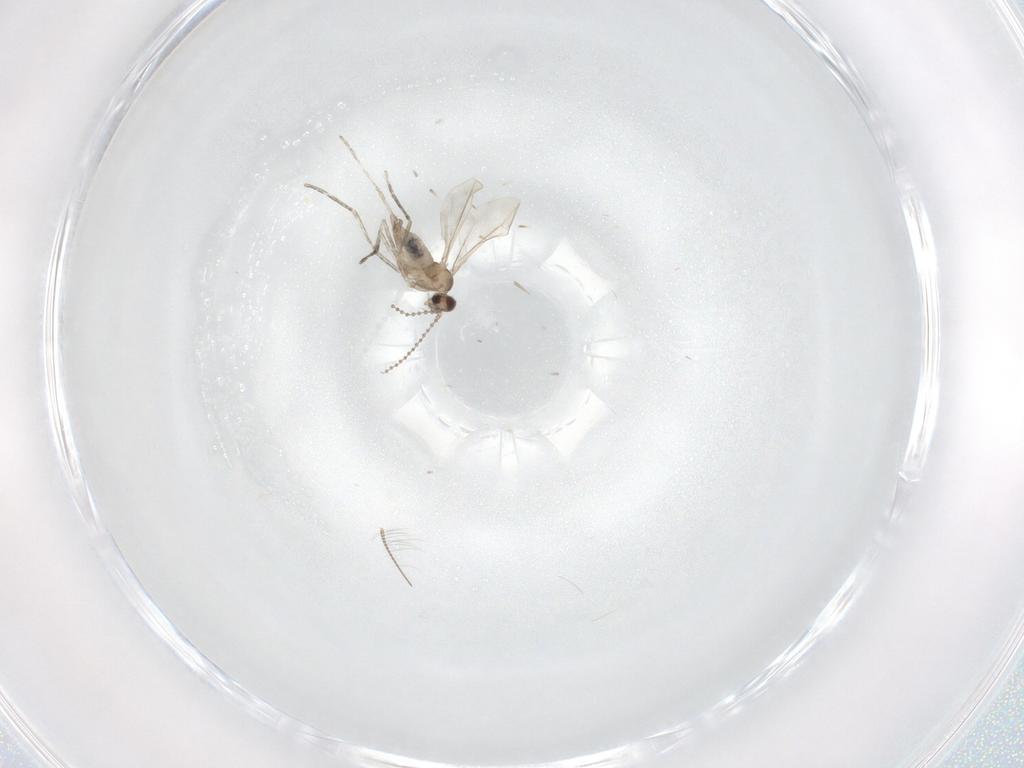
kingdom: Animalia
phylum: Arthropoda
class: Insecta
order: Diptera
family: Cecidomyiidae
